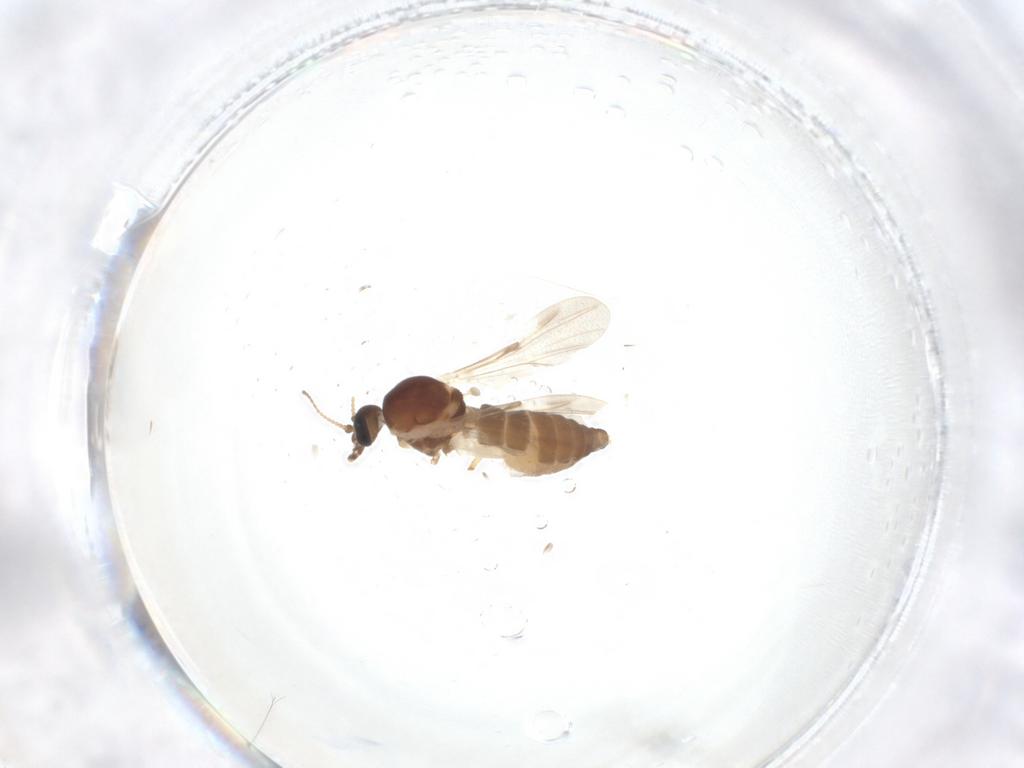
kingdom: Animalia
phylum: Arthropoda
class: Insecta
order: Diptera
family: Ceratopogonidae
